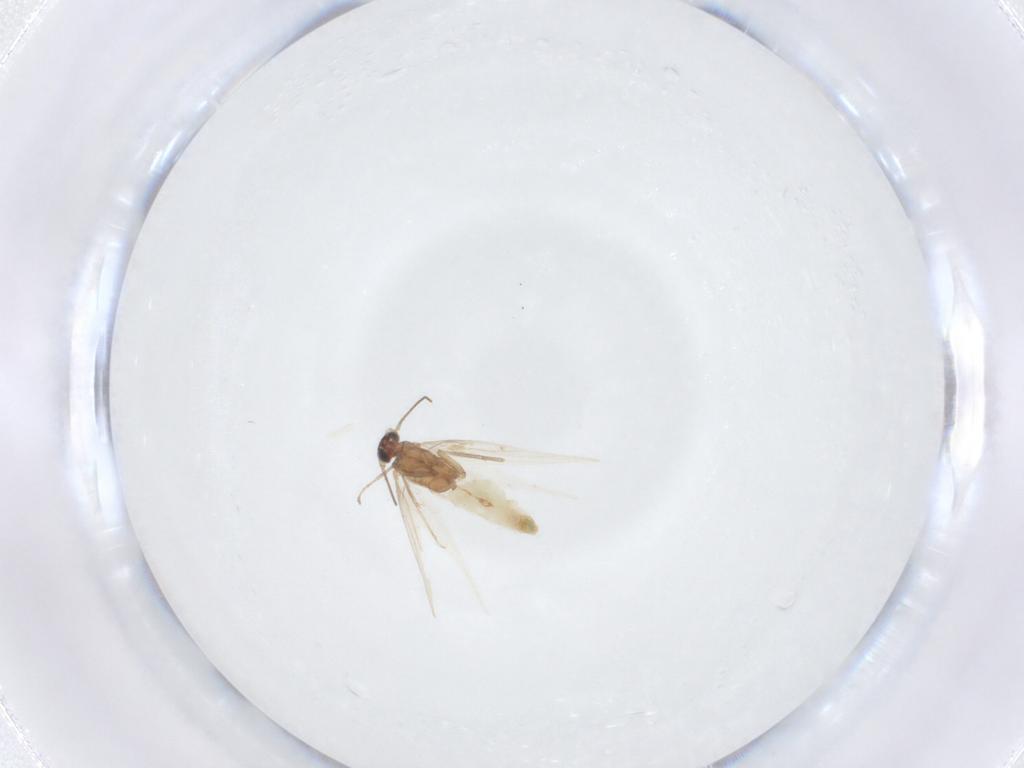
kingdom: Animalia
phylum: Arthropoda
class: Insecta
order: Lepidoptera
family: Nepticulidae
